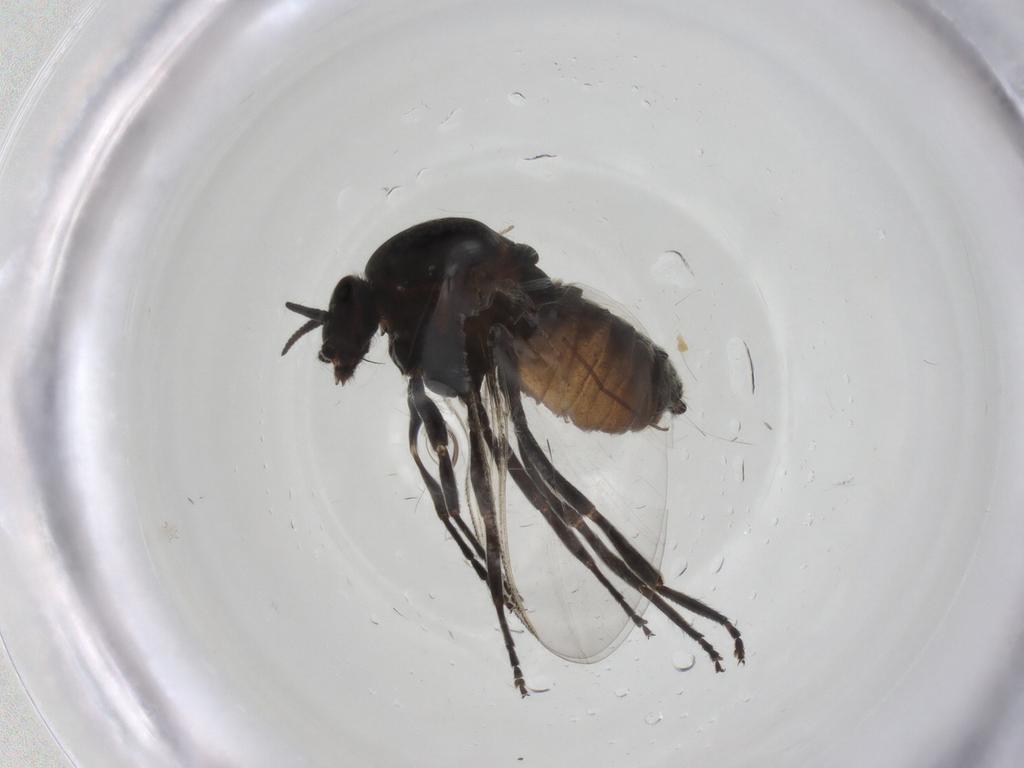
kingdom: Animalia
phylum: Arthropoda
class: Insecta
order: Diptera
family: Simuliidae
